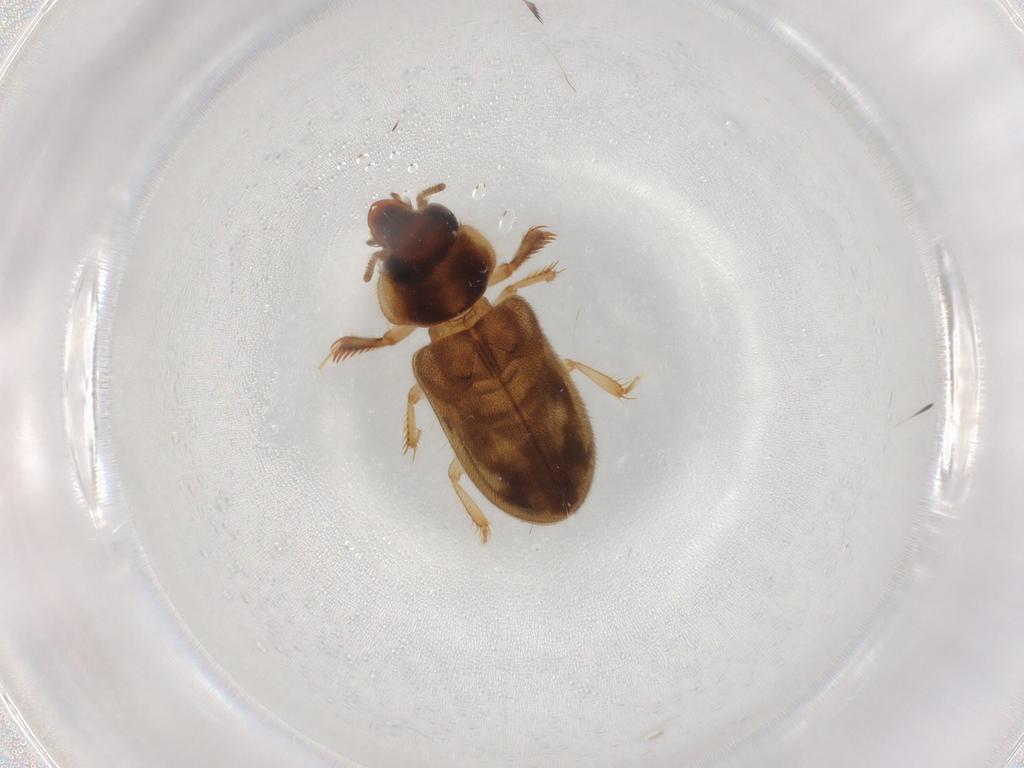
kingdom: Animalia
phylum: Arthropoda
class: Insecta
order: Coleoptera
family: Heteroceridae
